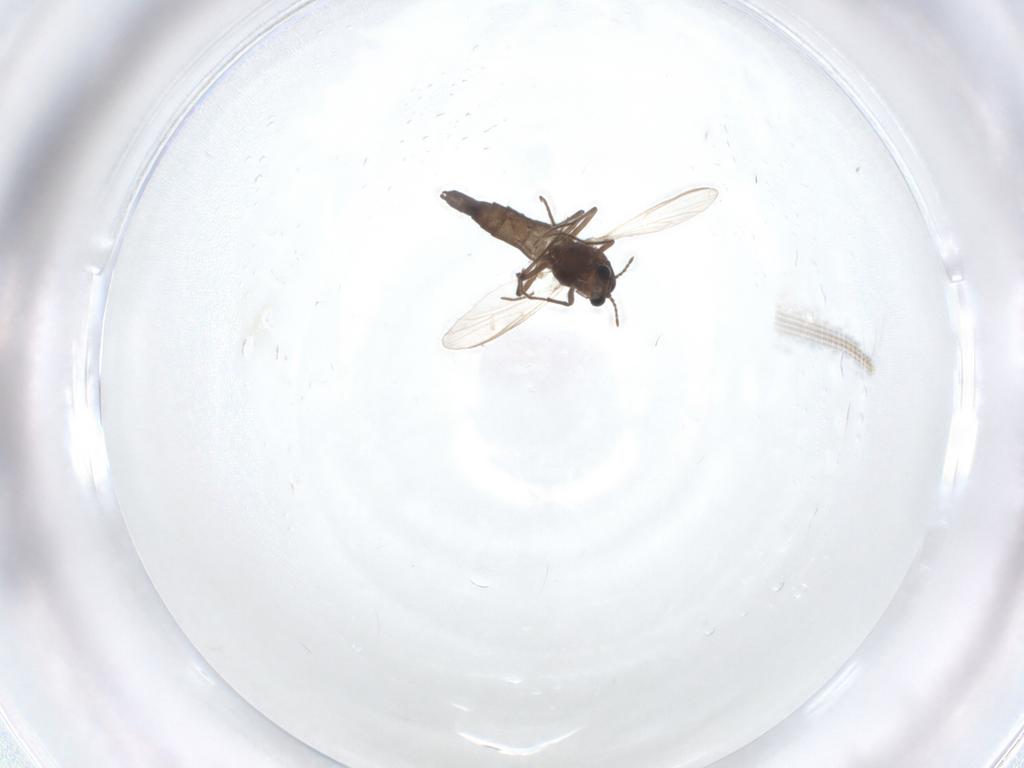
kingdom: Animalia
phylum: Arthropoda
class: Insecta
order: Diptera
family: Chironomidae
